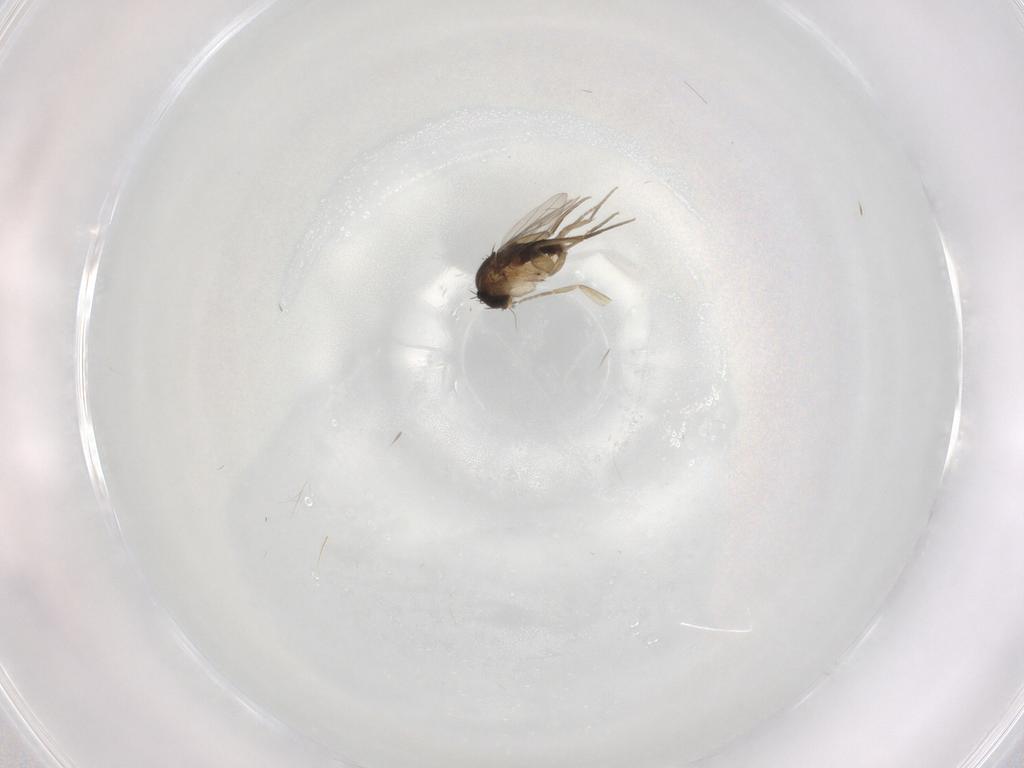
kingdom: Animalia
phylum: Arthropoda
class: Insecta
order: Diptera
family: Phoridae
